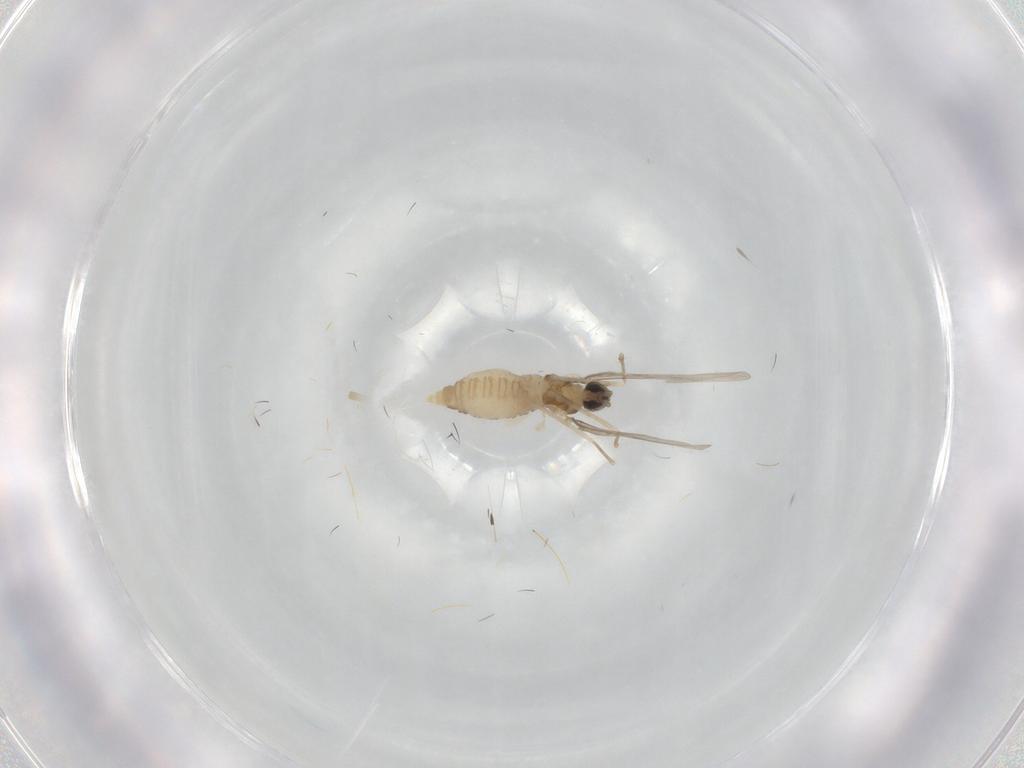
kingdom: Animalia
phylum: Arthropoda
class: Insecta
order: Diptera
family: Cecidomyiidae
